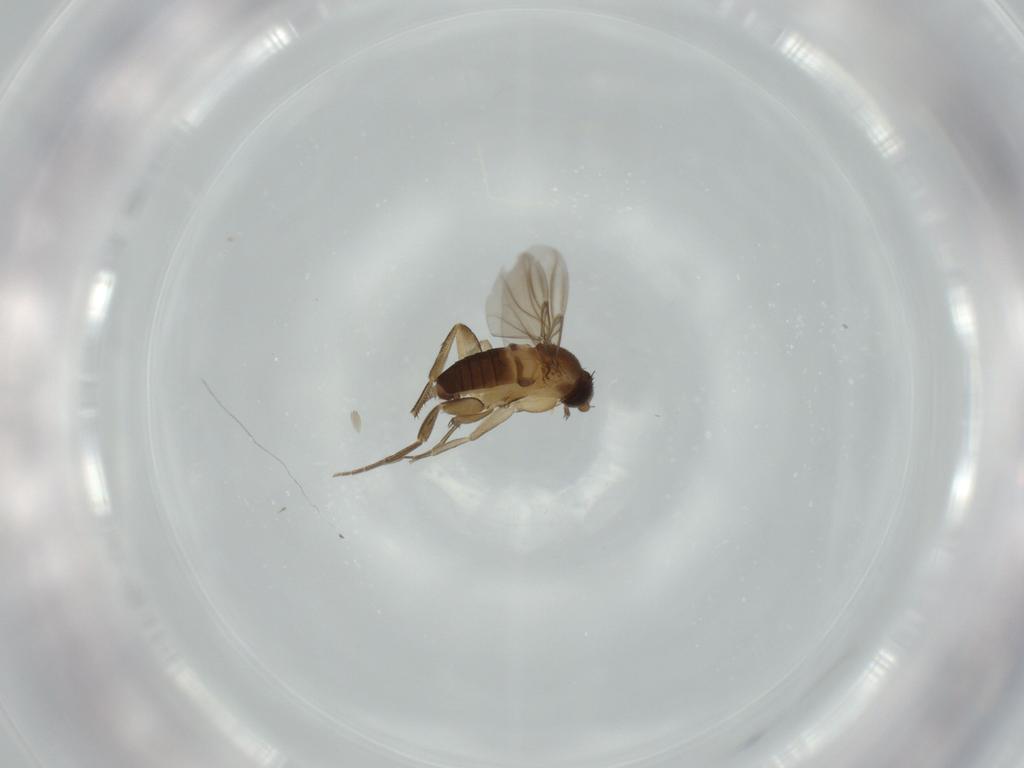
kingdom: Animalia
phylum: Arthropoda
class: Insecta
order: Diptera
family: Phoridae
